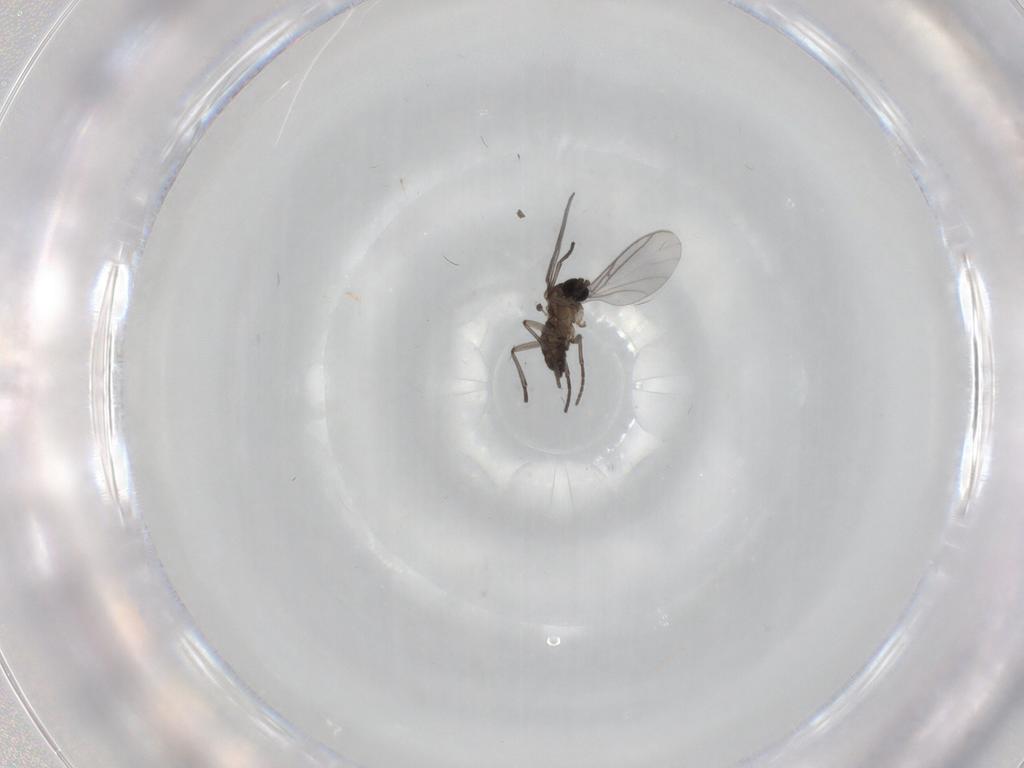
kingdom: Animalia
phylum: Arthropoda
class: Insecta
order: Diptera
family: Sciaridae
